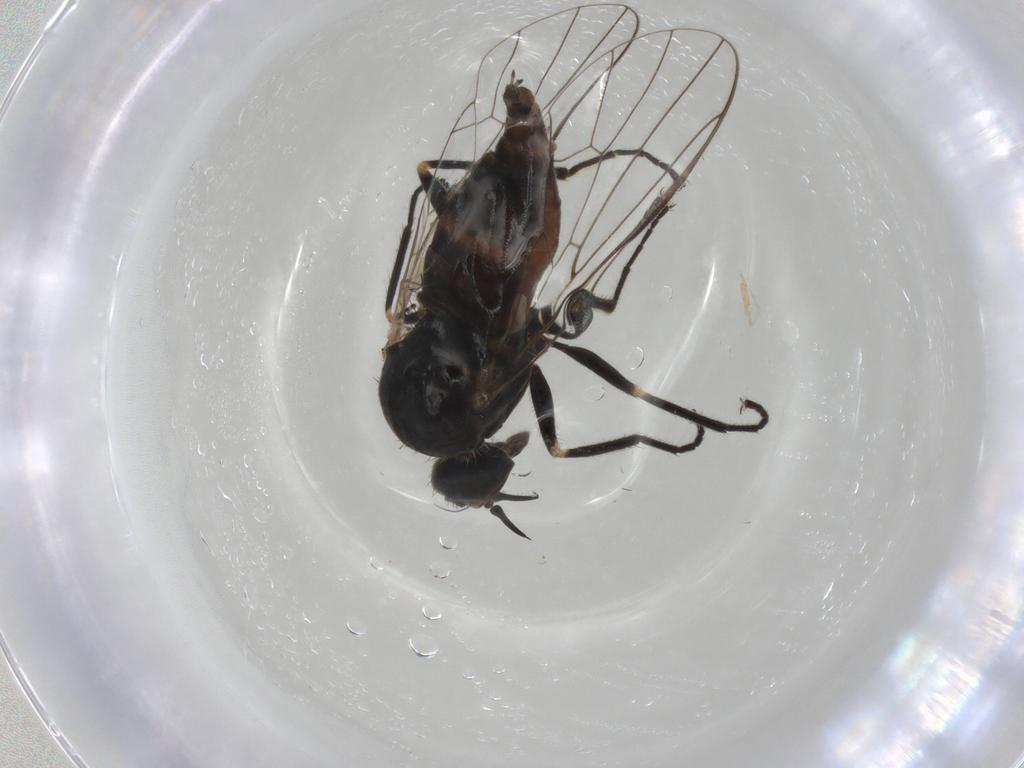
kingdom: Animalia
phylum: Arthropoda
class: Insecta
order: Diptera
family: Empididae
